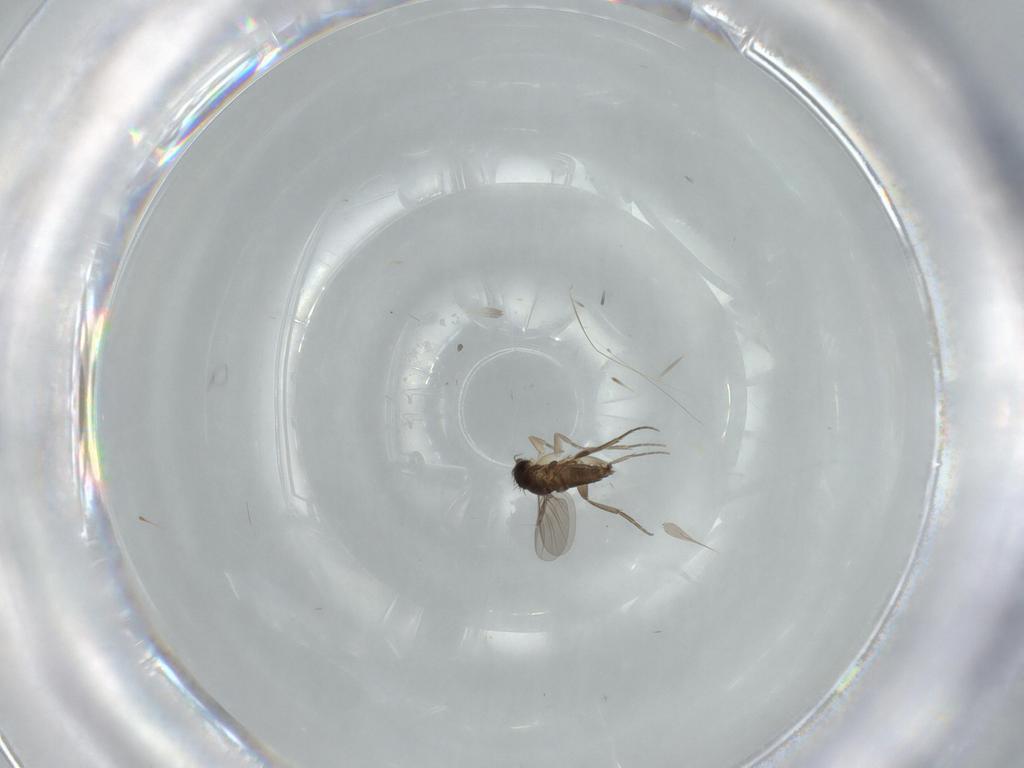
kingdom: Animalia
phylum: Arthropoda
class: Insecta
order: Diptera
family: Phoridae
